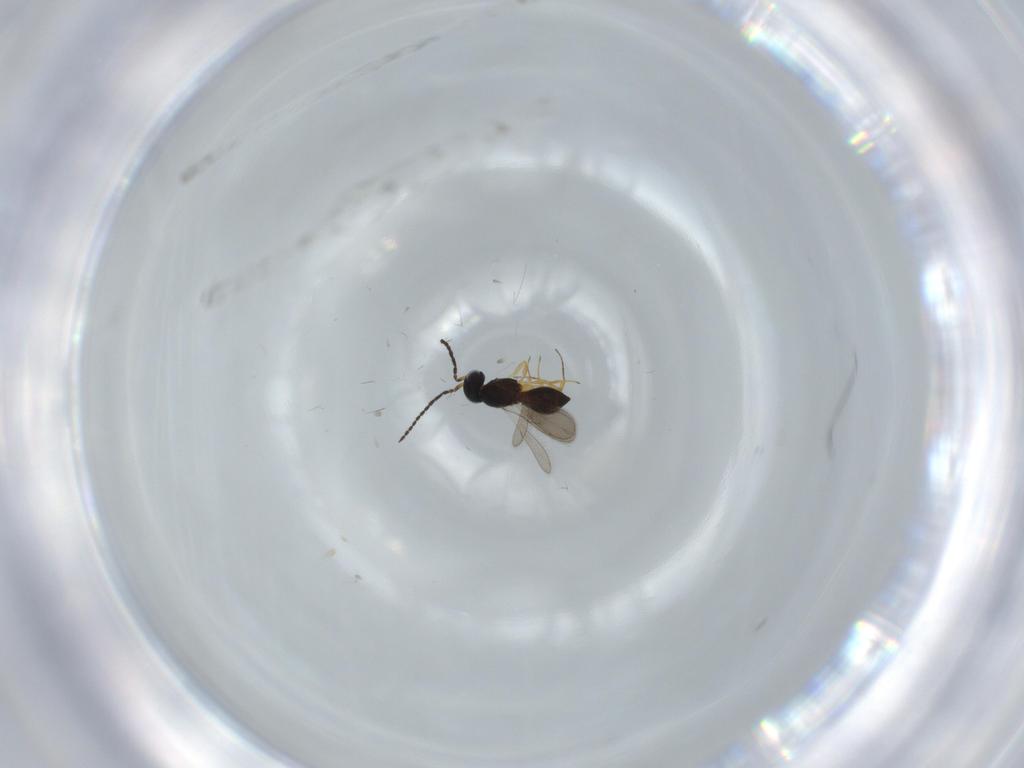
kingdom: Animalia
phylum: Arthropoda
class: Insecta
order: Hymenoptera
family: Scelionidae
